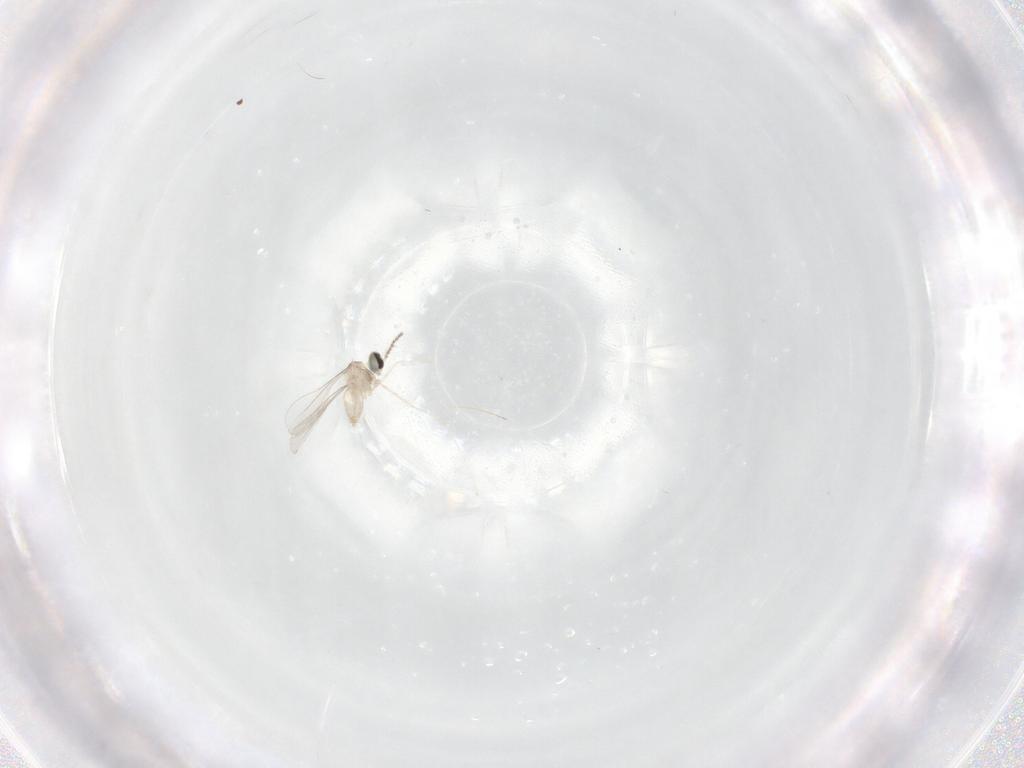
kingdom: Animalia
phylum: Arthropoda
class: Insecta
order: Diptera
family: Cecidomyiidae
